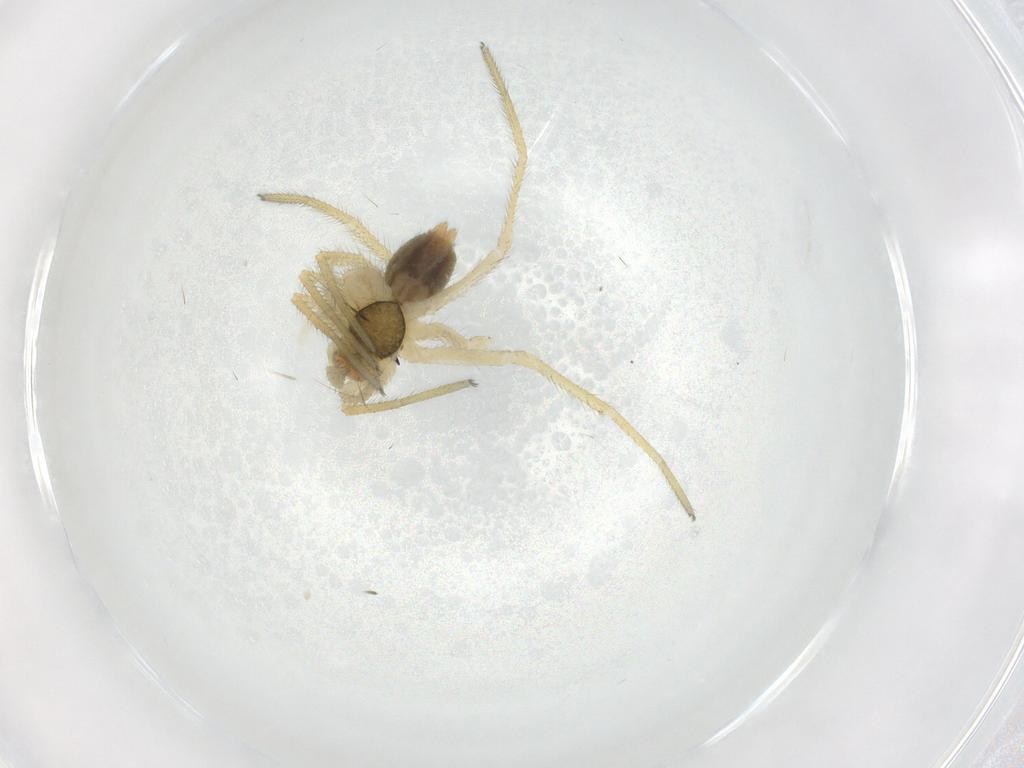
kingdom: Animalia
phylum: Arthropoda
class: Arachnida
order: Araneae
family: Linyphiidae
